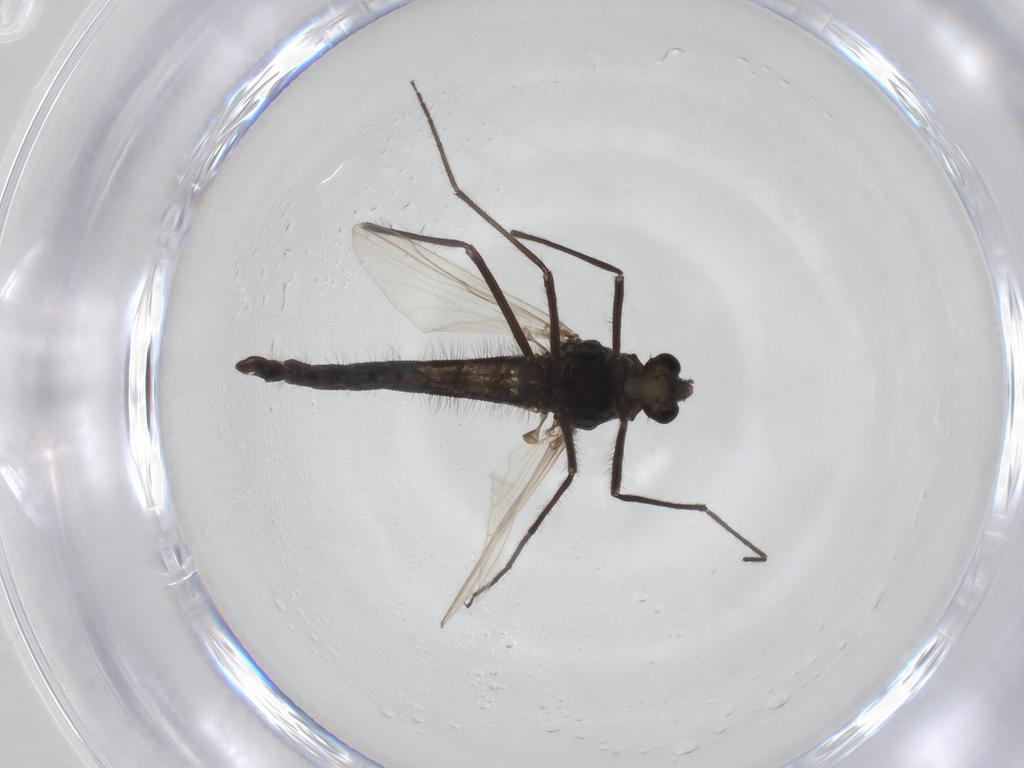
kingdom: Animalia
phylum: Arthropoda
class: Insecta
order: Diptera
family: Chironomidae
